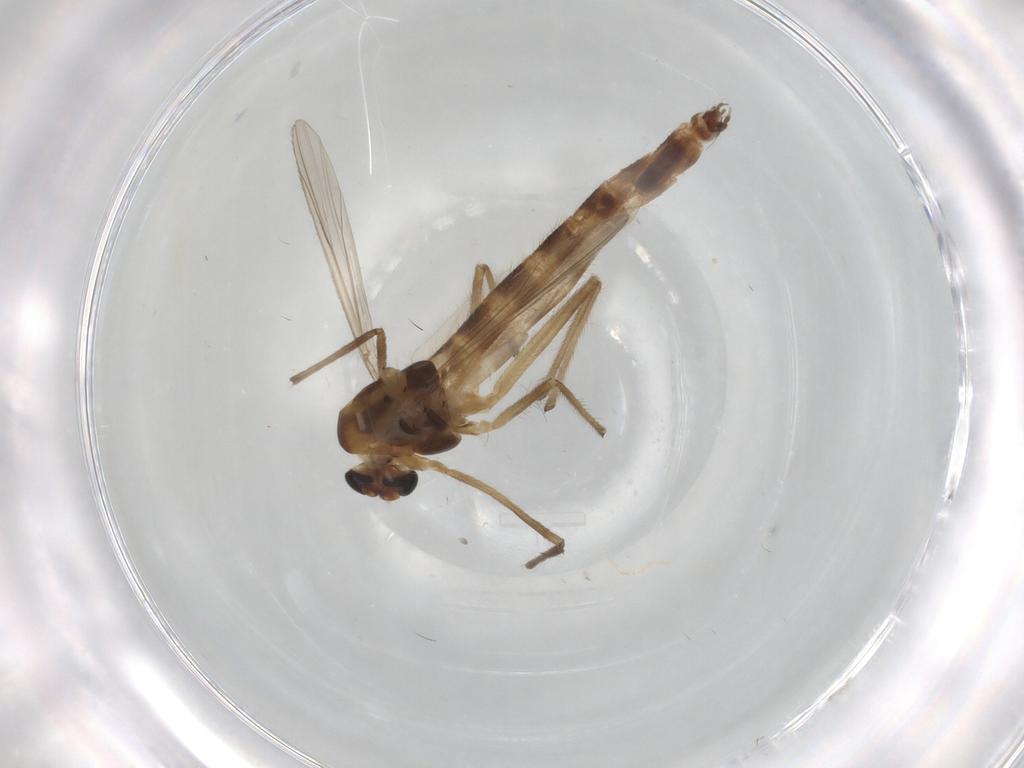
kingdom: Animalia
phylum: Arthropoda
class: Insecta
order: Diptera
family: Chironomidae
